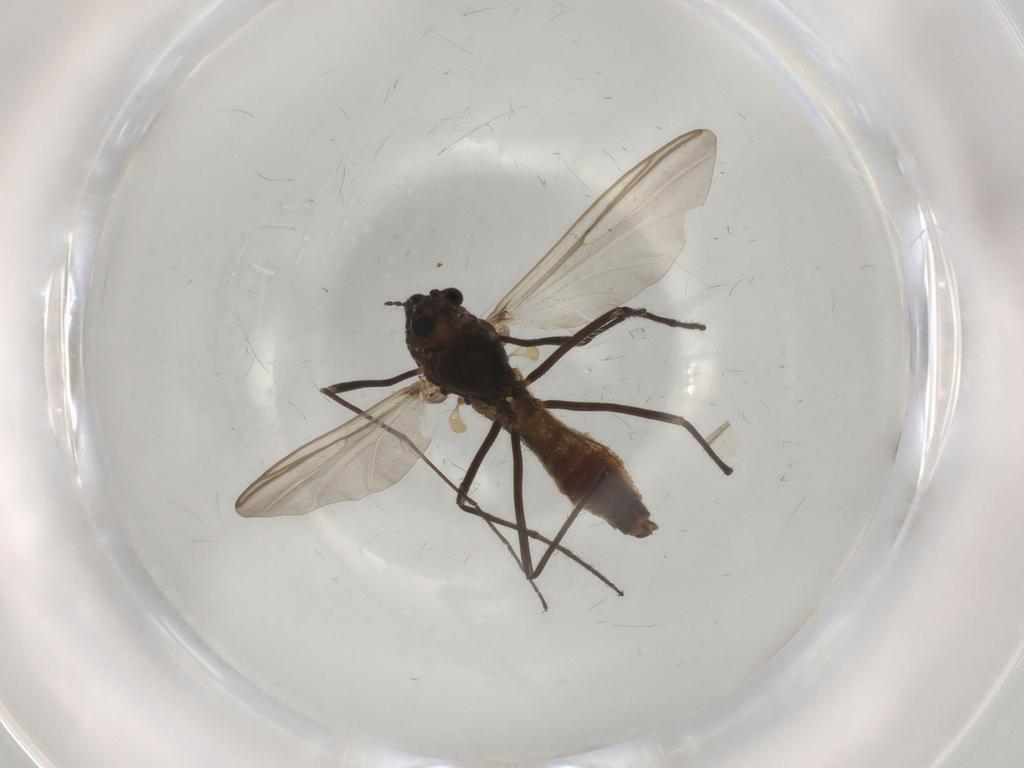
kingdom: Animalia
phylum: Arthropoda
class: Insecta
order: Diptera
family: Chironomidae
